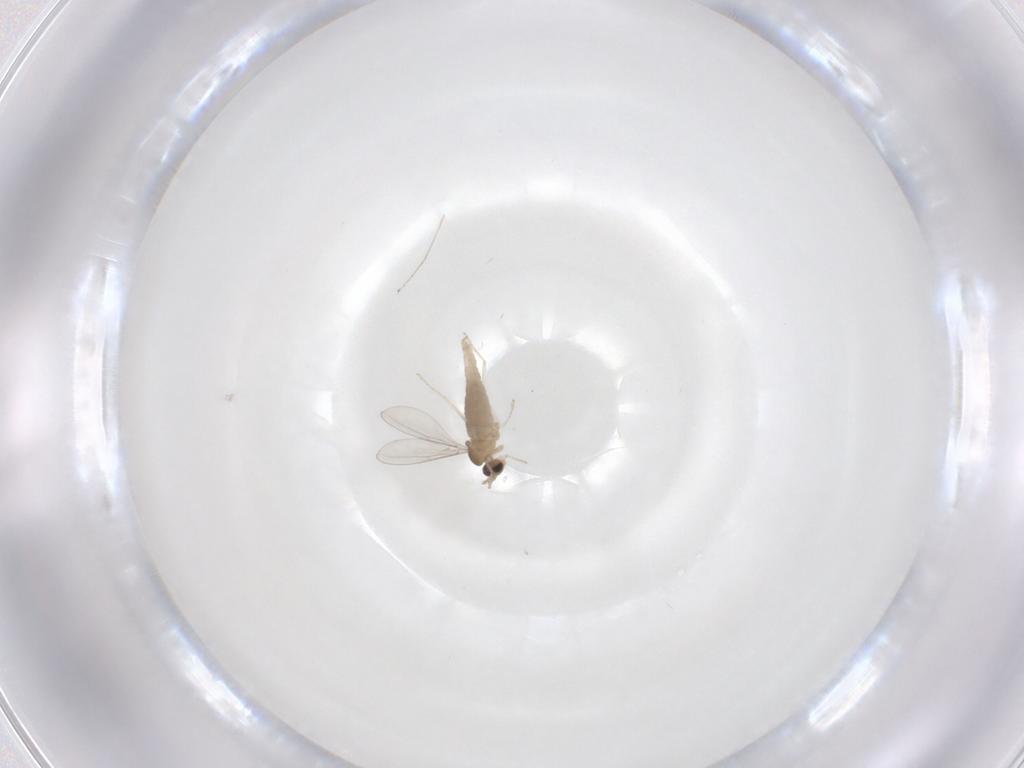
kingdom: Animalia
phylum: Arthropoda
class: Insecta
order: Diptera
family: Cecidomyiidae
